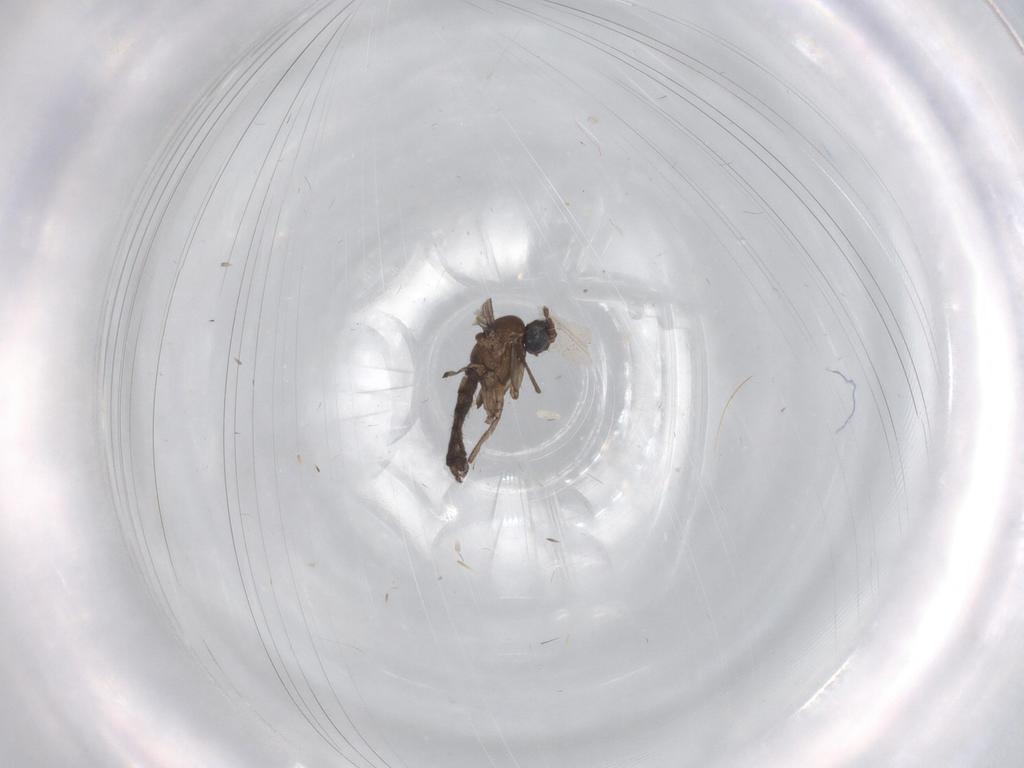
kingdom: Animalia
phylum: Arthropoda
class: Insecta
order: Diptera
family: Cecidomyiidae
